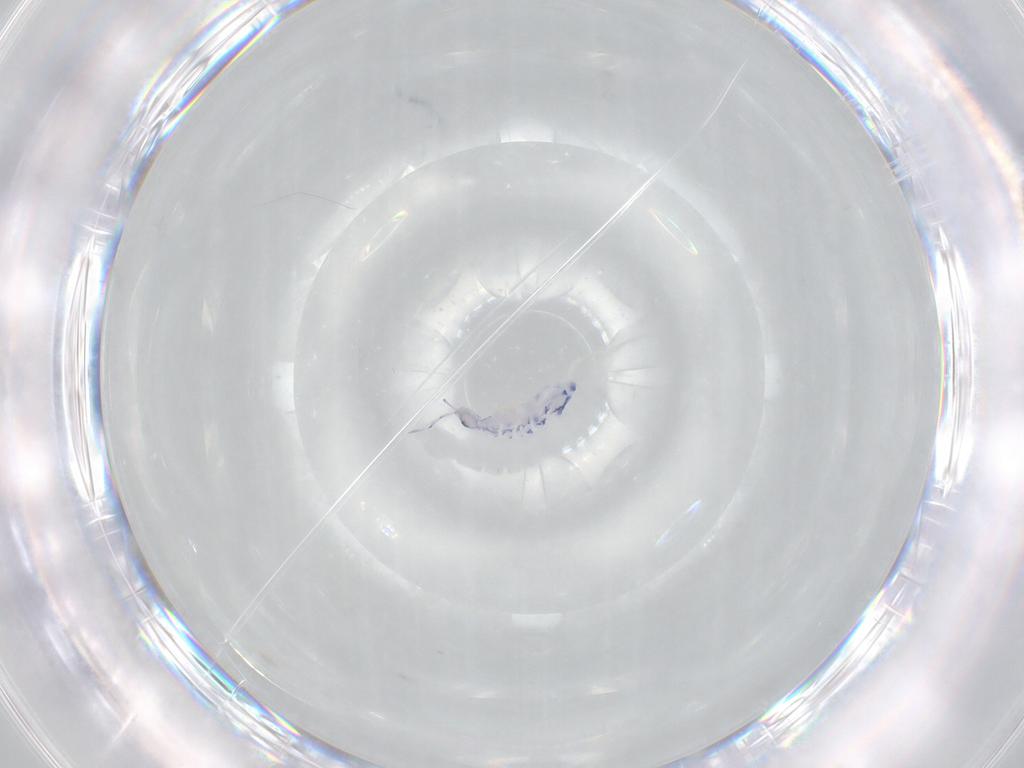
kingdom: Animalia
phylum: Arthropoda
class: Collembola
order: Entomobryomorpha
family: Entomobryidae
